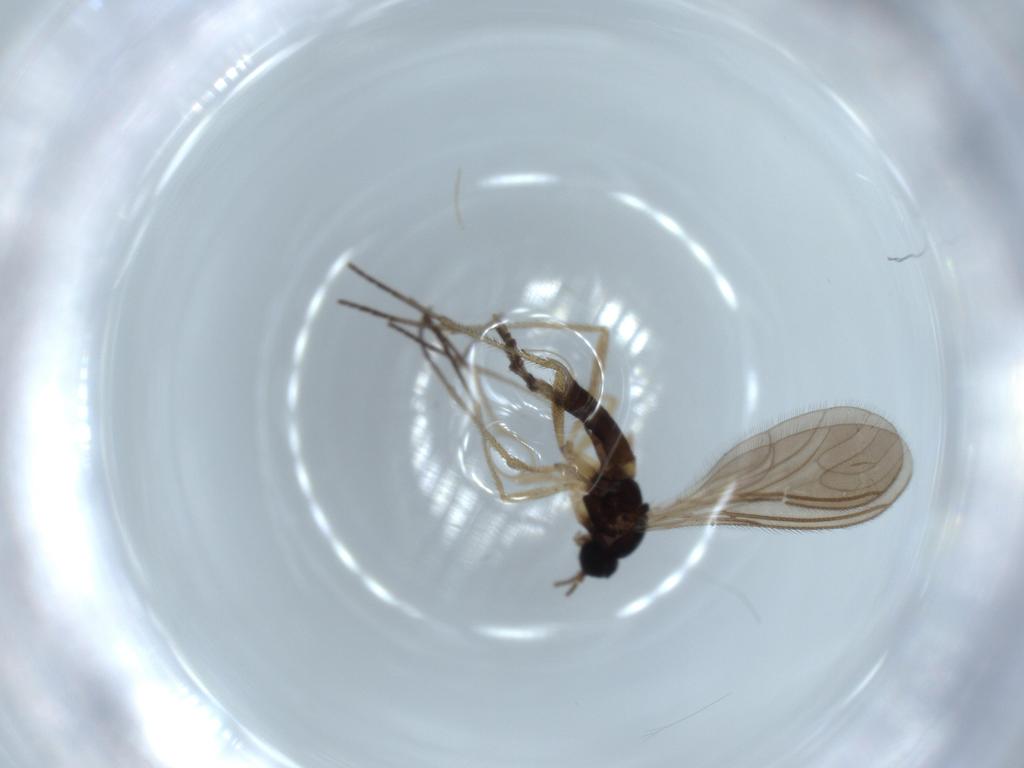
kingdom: Animalia
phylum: Arthropoda
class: Insecta
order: Diptera
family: Sciaridae
